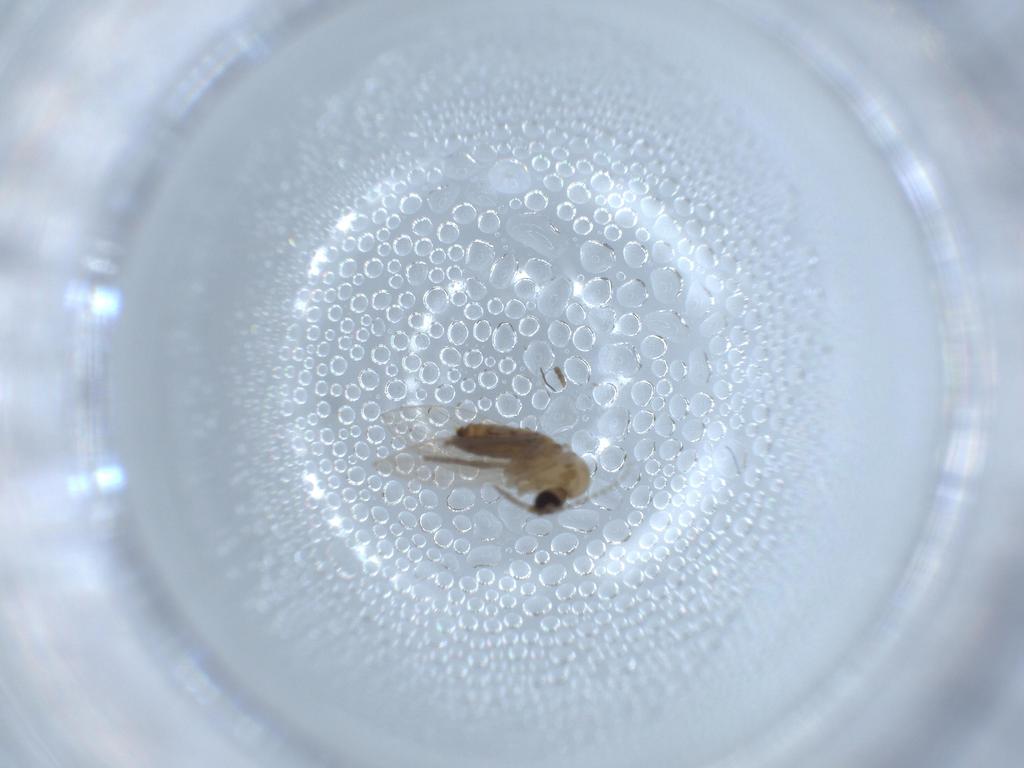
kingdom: Animalia
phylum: Arthropoda
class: Insecta
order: Diptera
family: Psychodidae
